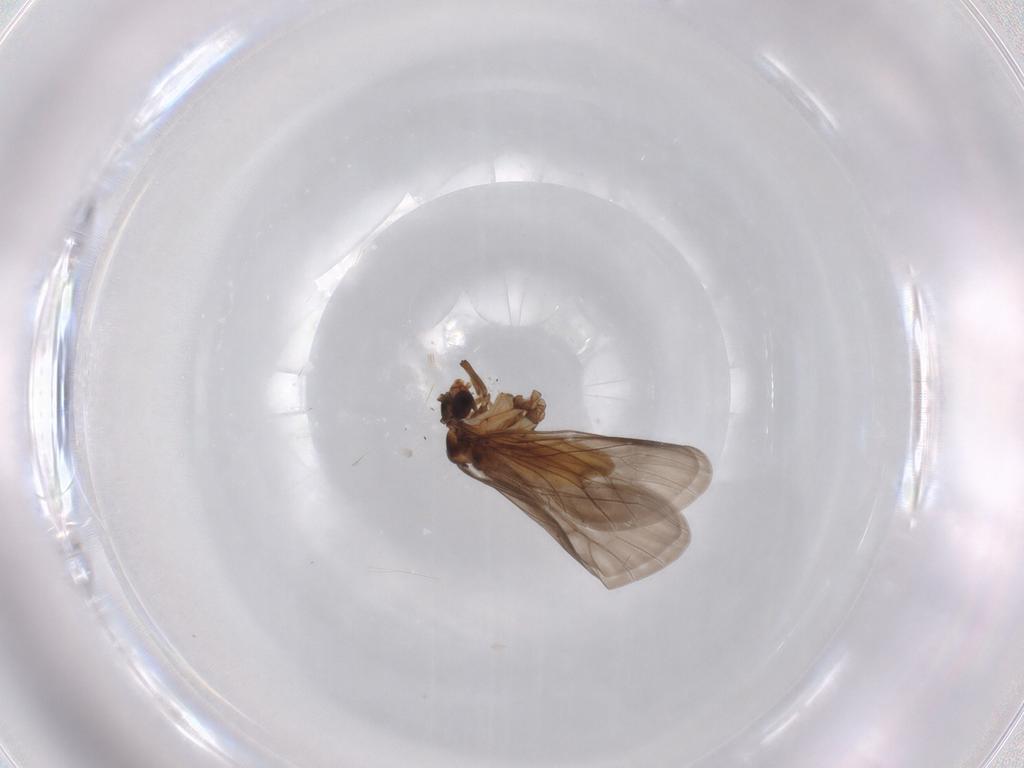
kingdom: Animalia
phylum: Arthropoda
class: Insecta
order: Neuroptera
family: Coniopterygidae
